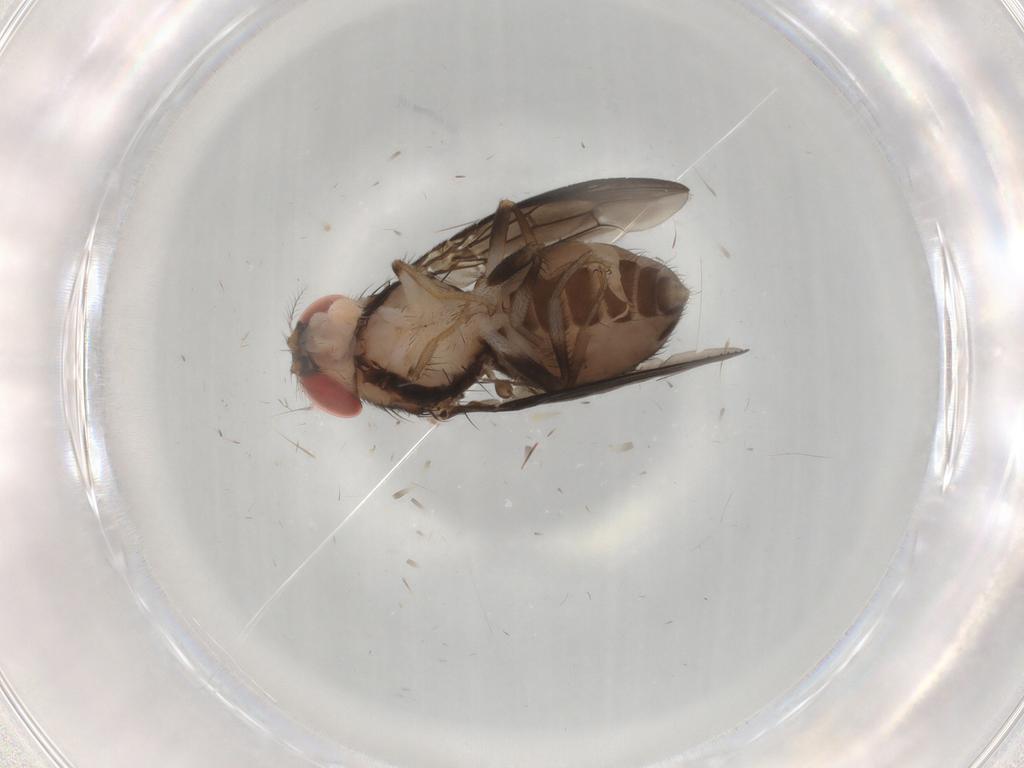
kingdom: Animalia
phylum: Arthropoda
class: Insecta
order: Diptera
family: Drosophilidae
